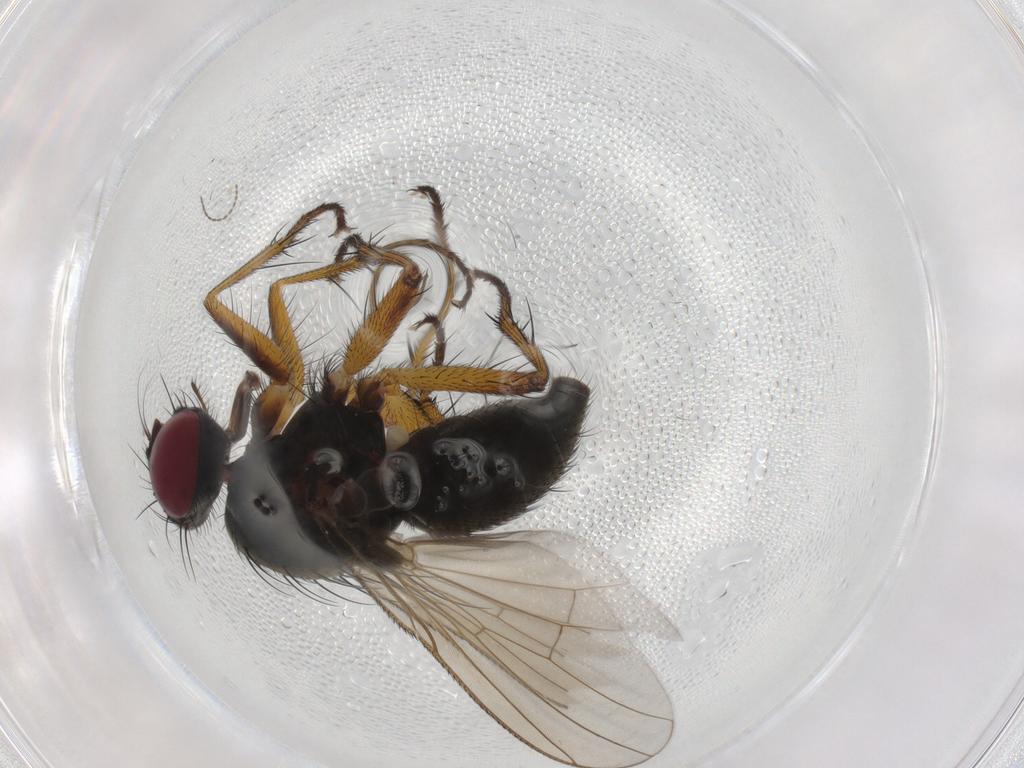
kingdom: Animalia
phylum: Arthropoda
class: Insecta
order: Diptera
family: Muscidae
